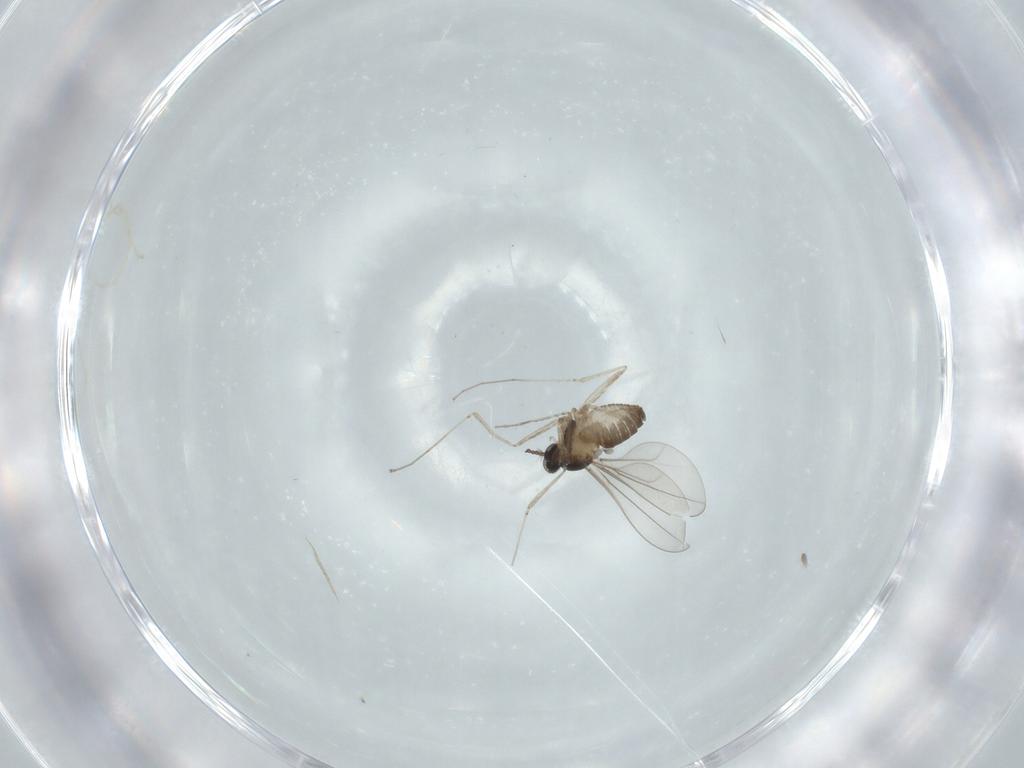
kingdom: Animalia
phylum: Arthropoda
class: Insecta
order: Diptera
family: Cecidomyiidae
